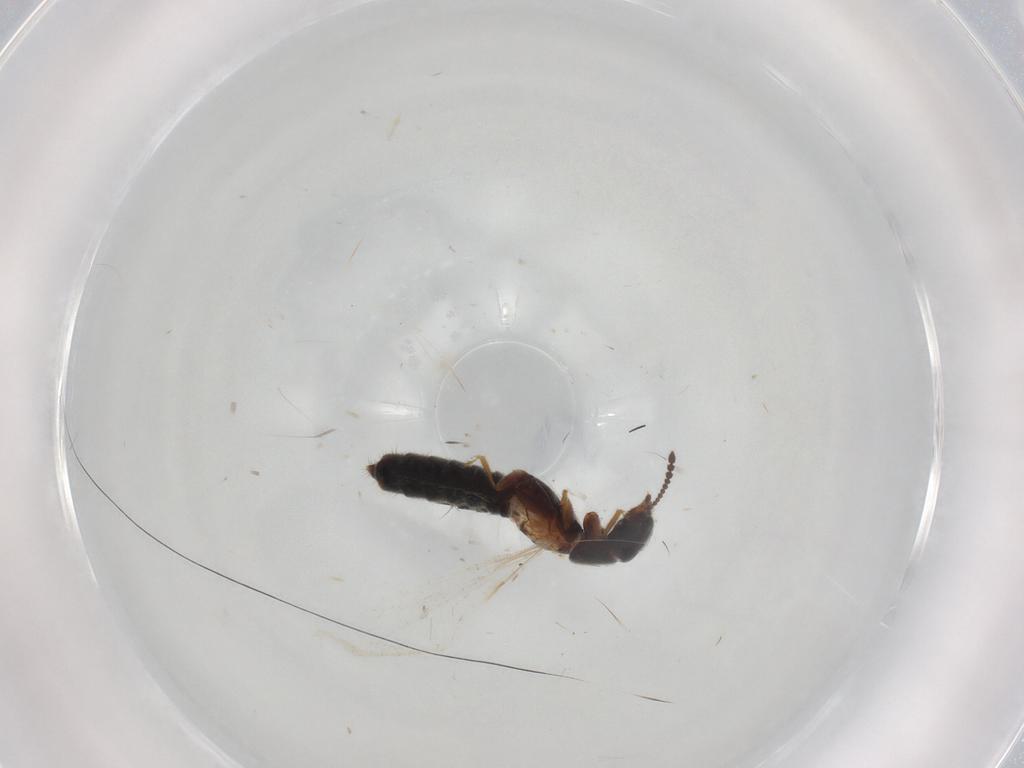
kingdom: Animalia
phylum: Arthropoda
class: Insecta
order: Coleoptera
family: Staphylinidae
